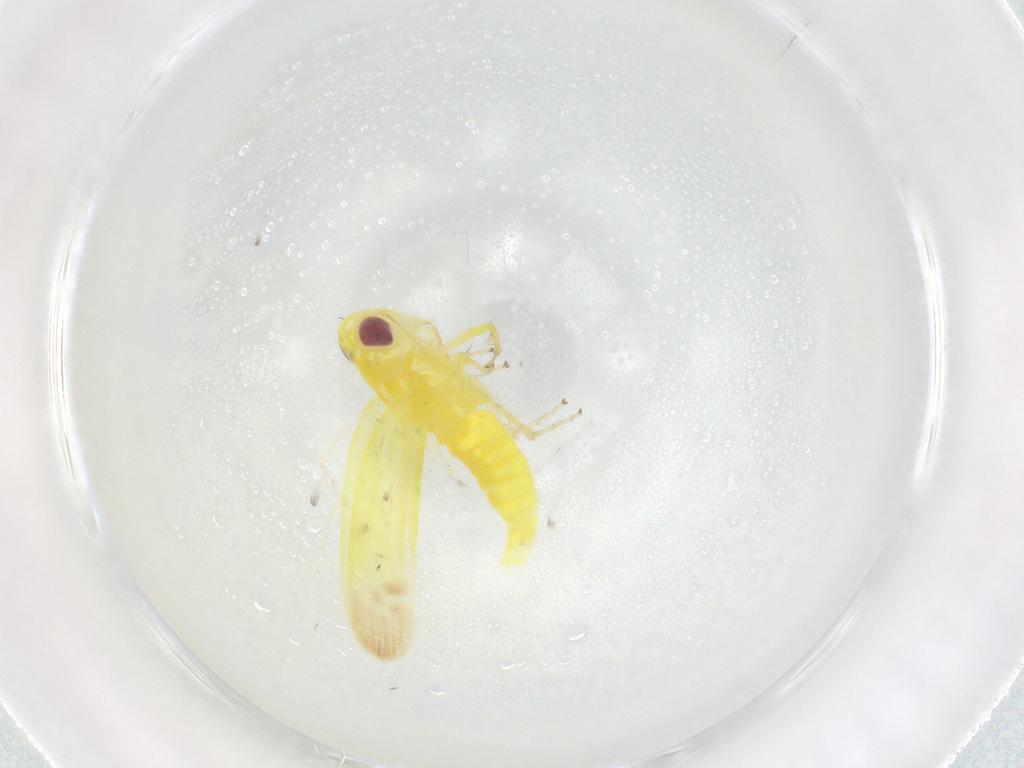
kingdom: Animalia
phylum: Arthropoda
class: Insecta
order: Hemiptera
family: Cicadellidae
